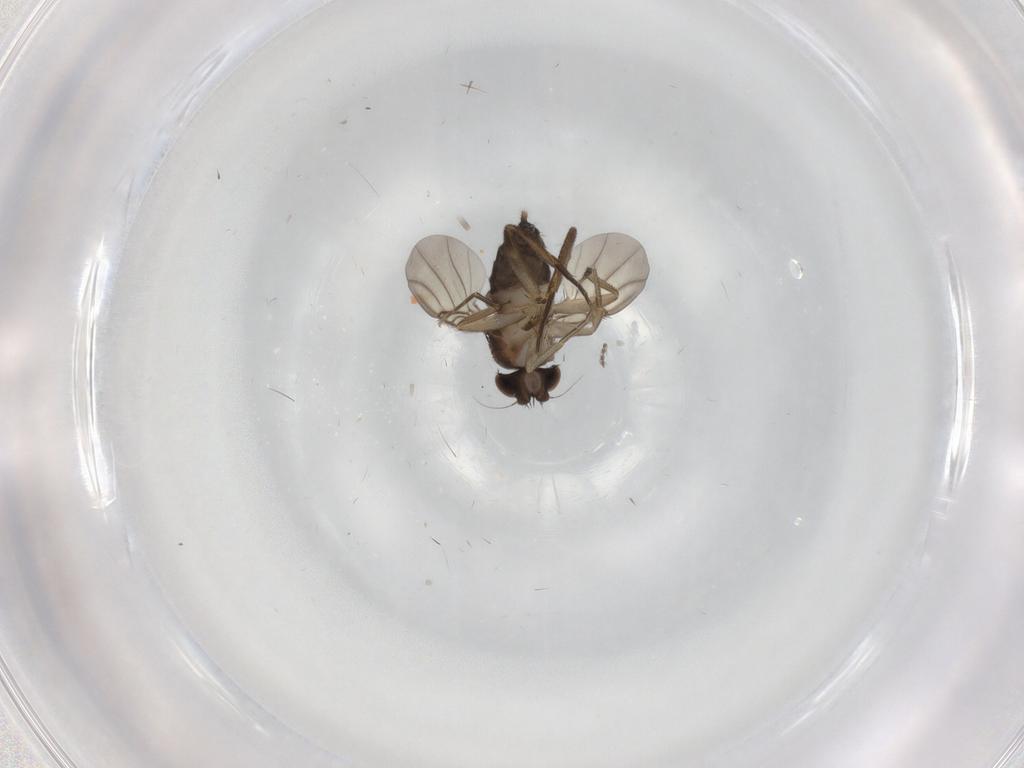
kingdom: Animalia
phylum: Arthropoda
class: Insecta
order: Diptera
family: Phoridae
